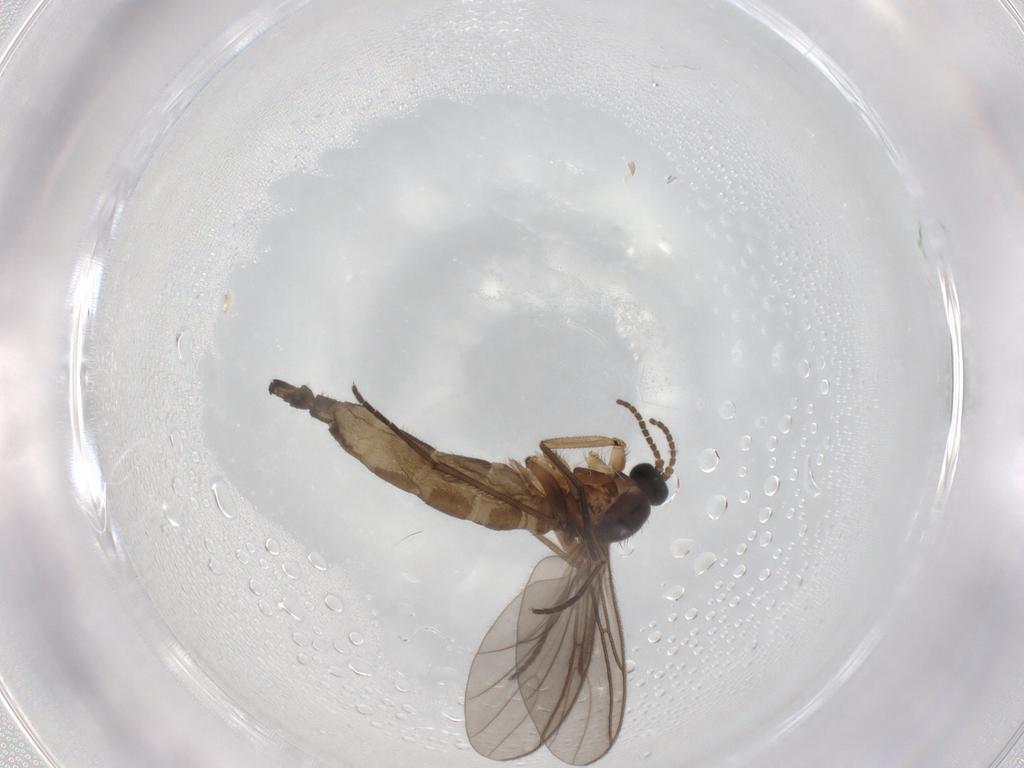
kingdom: Animalia
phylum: Arthropoda
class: Insecta
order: Diptera
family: Sciaridae
